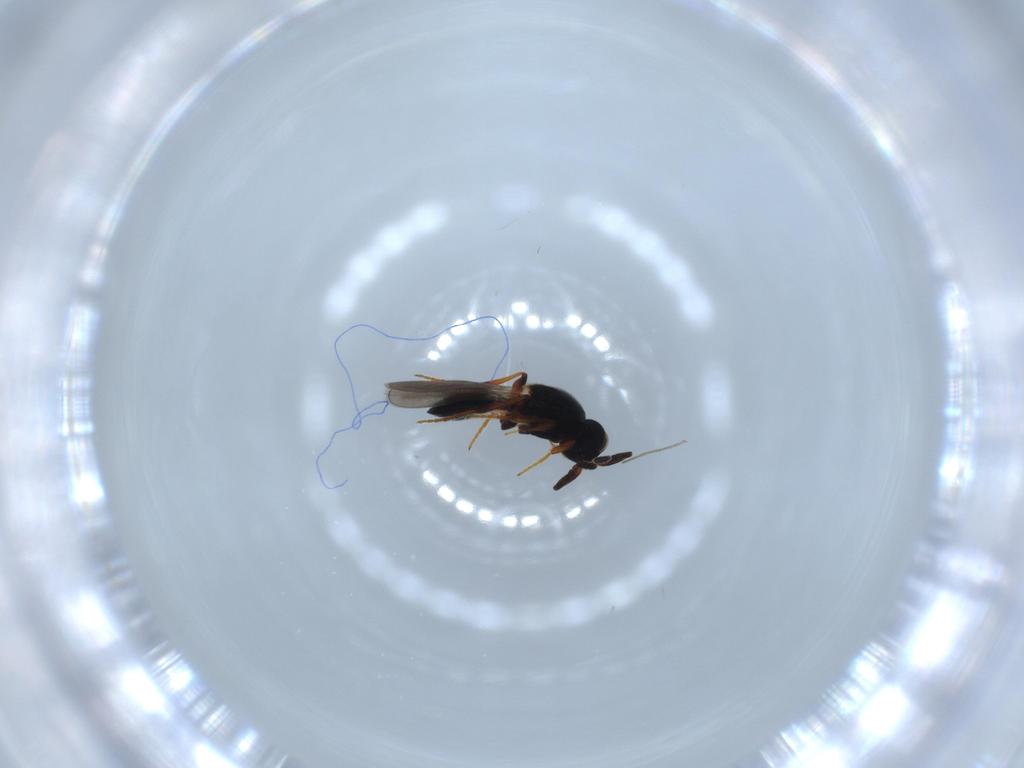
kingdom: Animalia
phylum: Arthropoda
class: Insecta
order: Hymenoptera
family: Platygastridae
